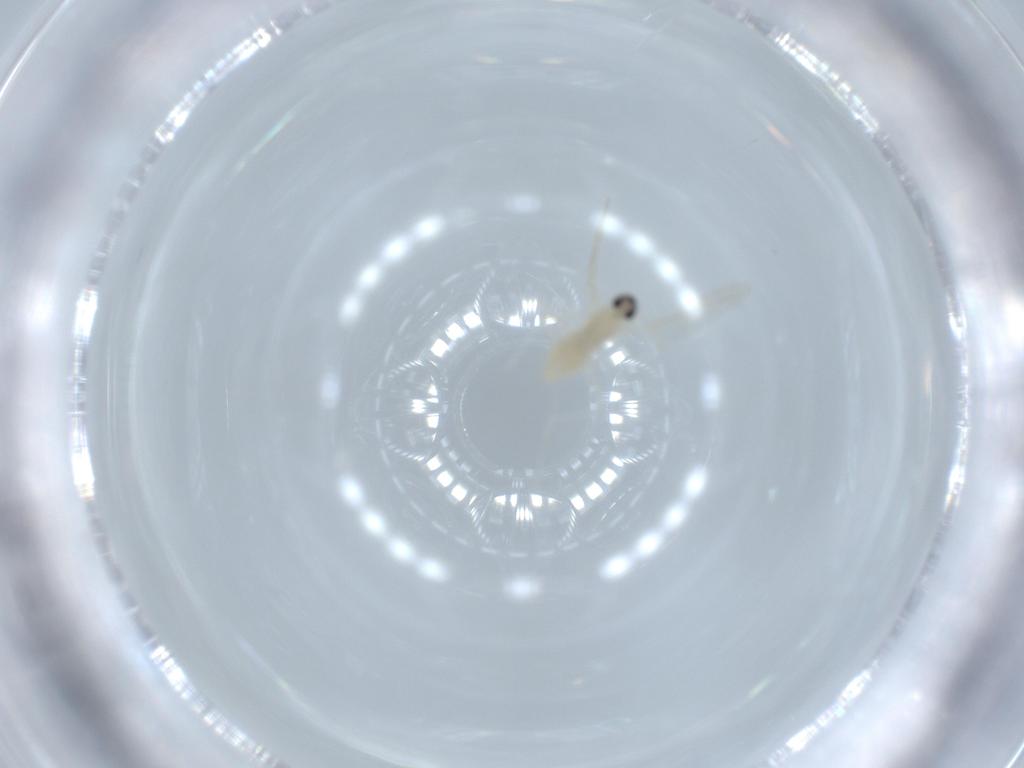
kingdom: Animalia
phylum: Arthropoda
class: Insecta
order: Diptera
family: Cecidomyiidae
